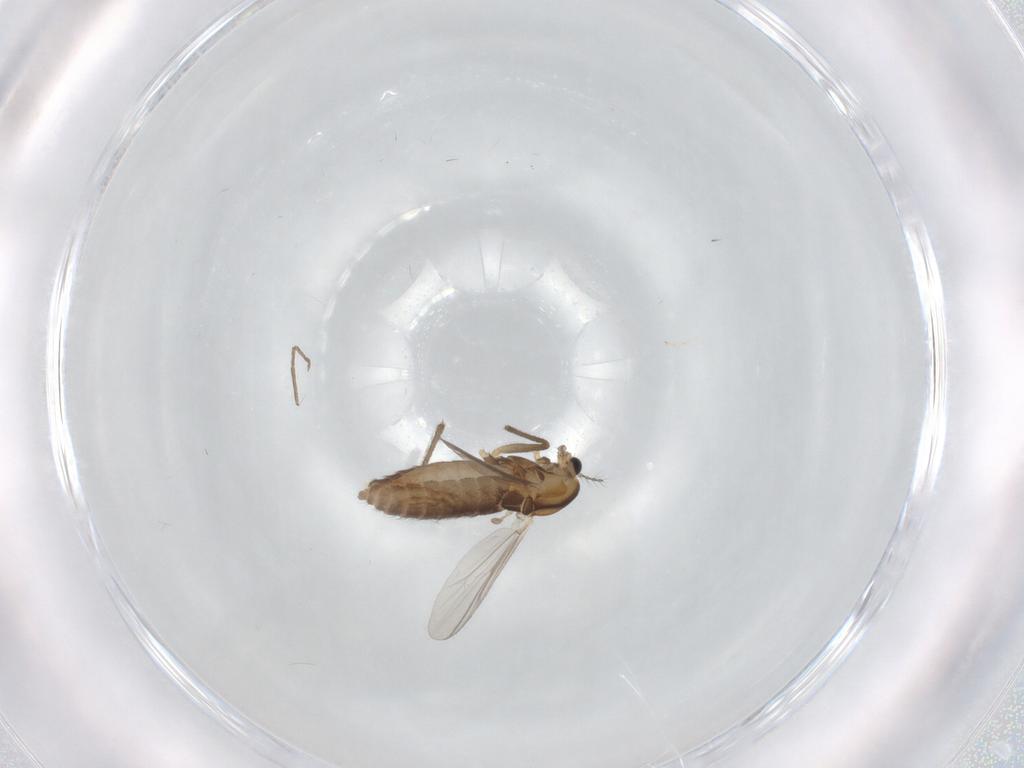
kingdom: Animalia
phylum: Arthropoda
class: Insecta
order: Diptera
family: Chironomidae
